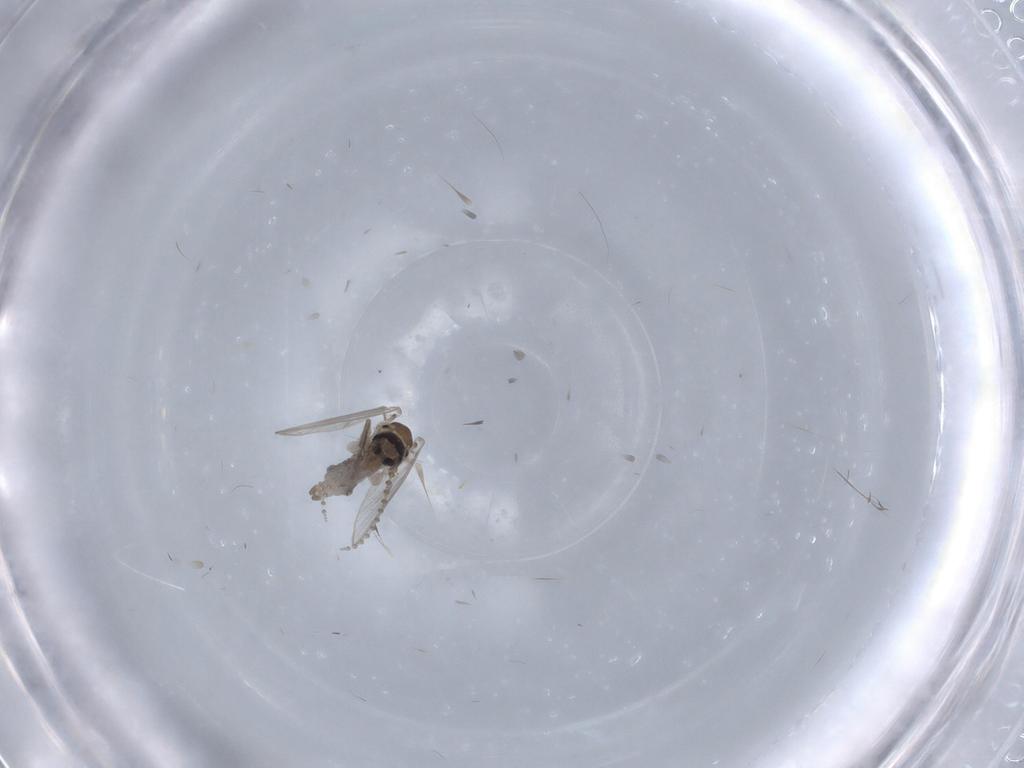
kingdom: Animalia
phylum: Arthropoda
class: Insecta
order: Diptera
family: Psychodidae
